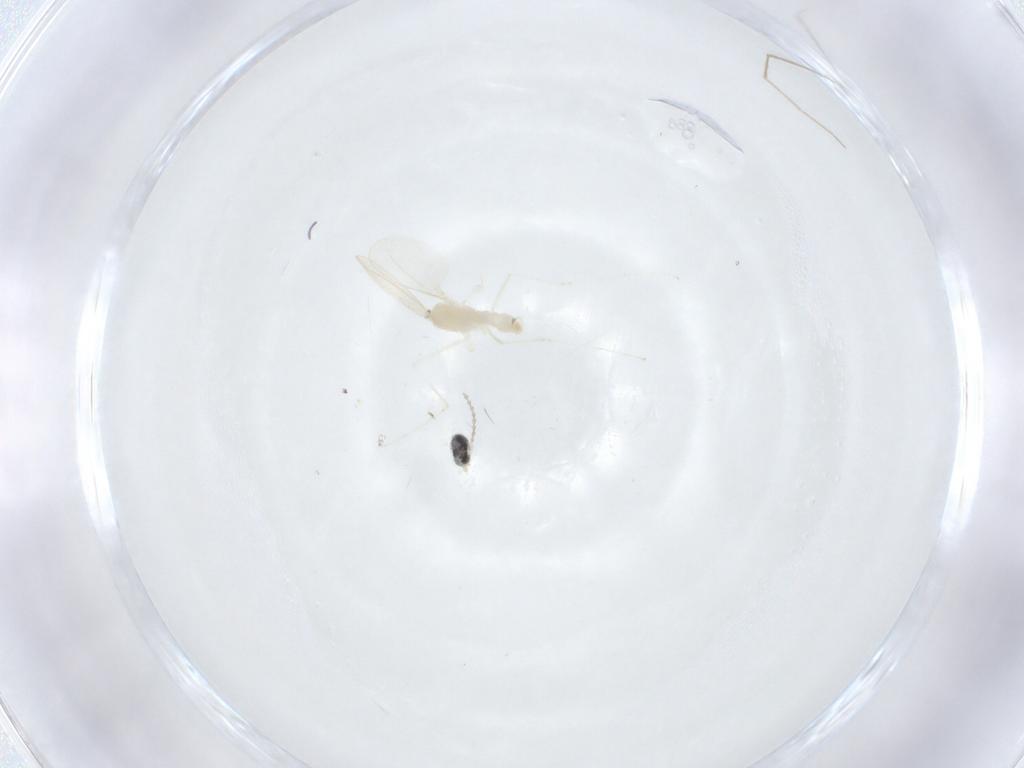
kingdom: Animalia
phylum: Arthropoda
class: Insecta
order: Diptera
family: Cecidomyiidae
